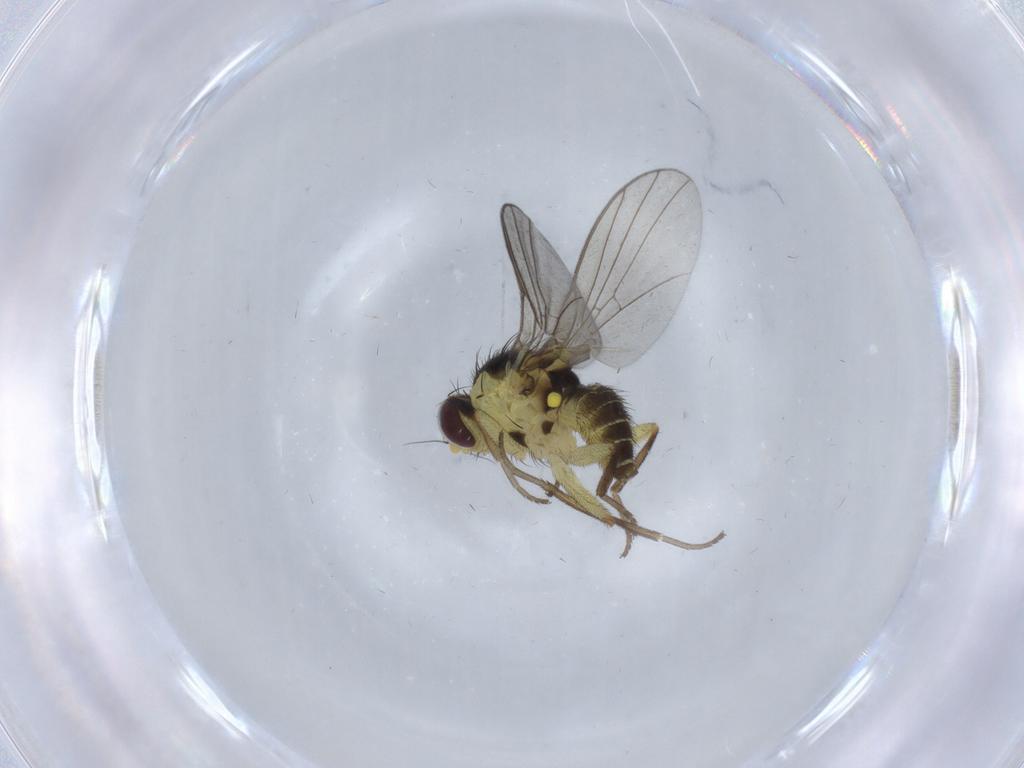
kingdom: Animalia
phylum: Arthropoda
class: Insecta
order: Diptera
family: Agromyzidae
